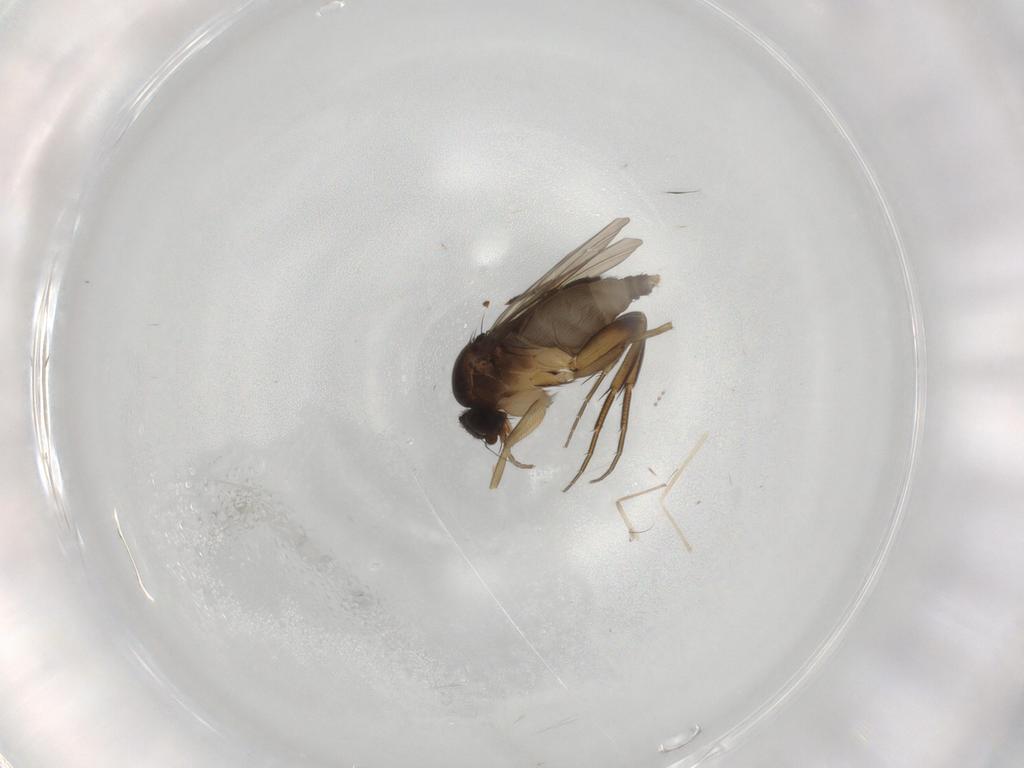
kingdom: Animalia
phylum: Arthropoda
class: Insecta
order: Diptera
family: Phoridae
